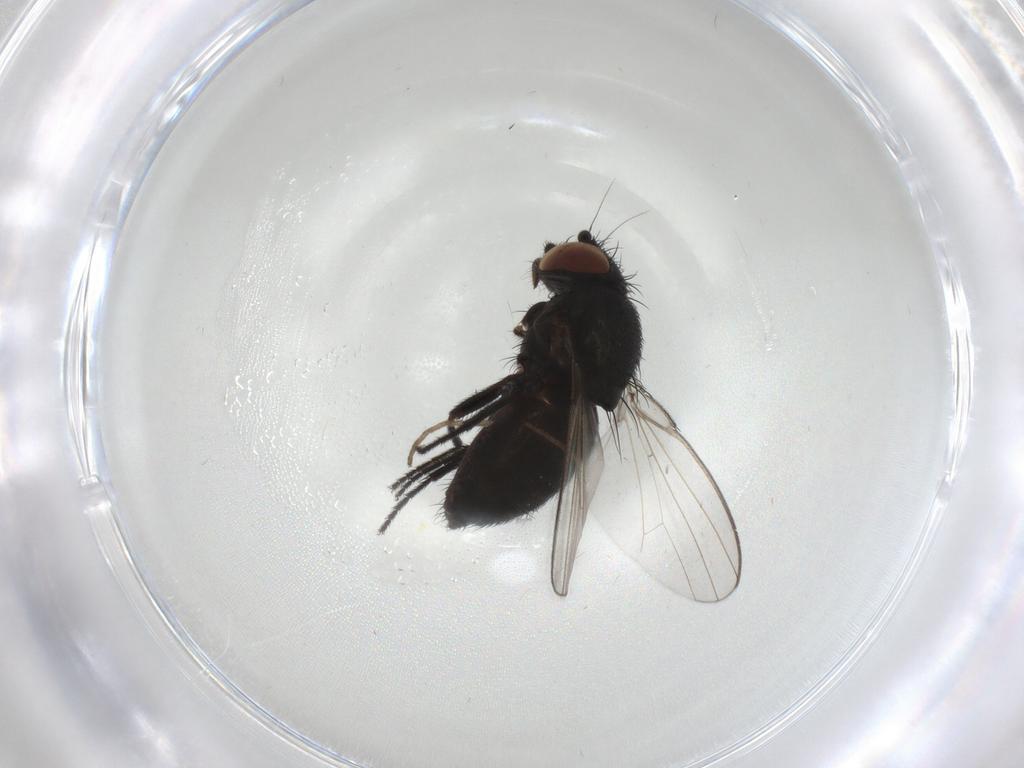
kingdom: Animalia
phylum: Arthropoda
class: Insecta
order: Diptera
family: Milichiidae
